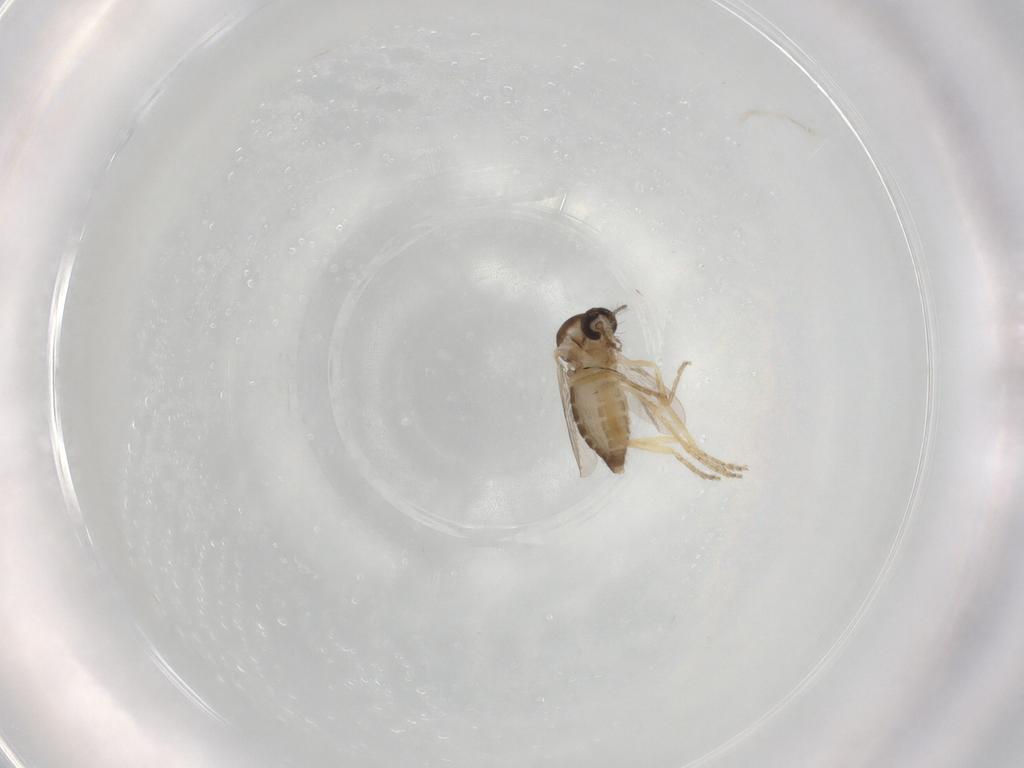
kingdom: Animalia
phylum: Arthropoda
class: Insecta
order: Diptera
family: Ceratopogonidae
